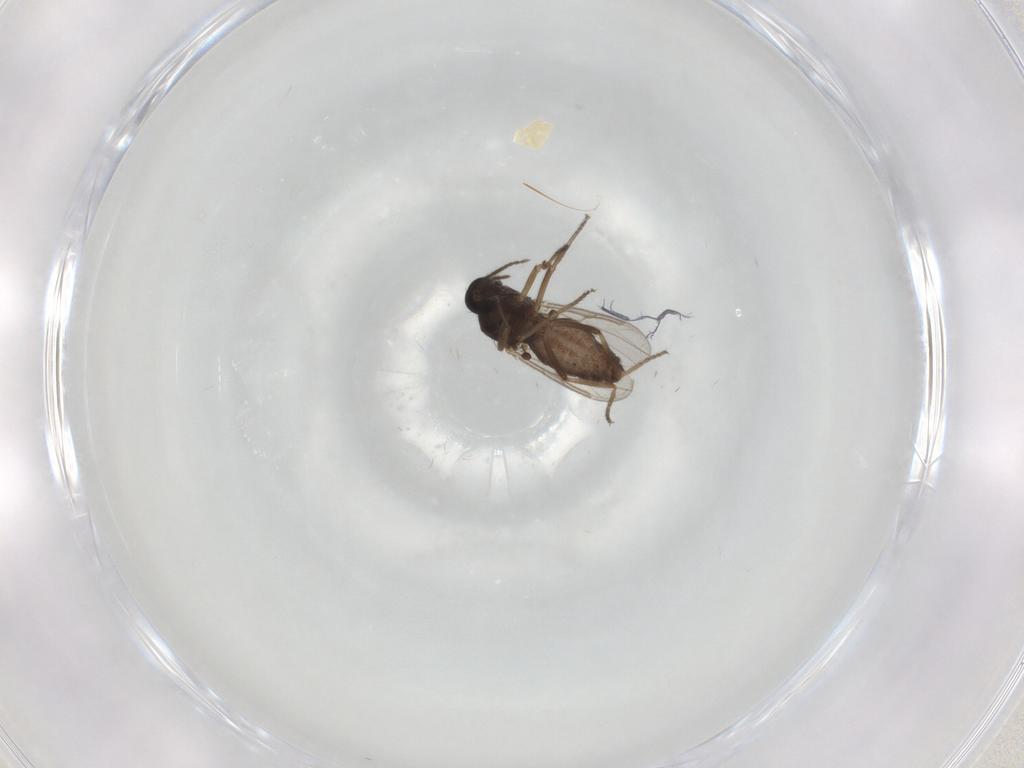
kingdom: Animalia
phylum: Arthropoda
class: Insecta
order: Diptera
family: Ceratopogonidae
